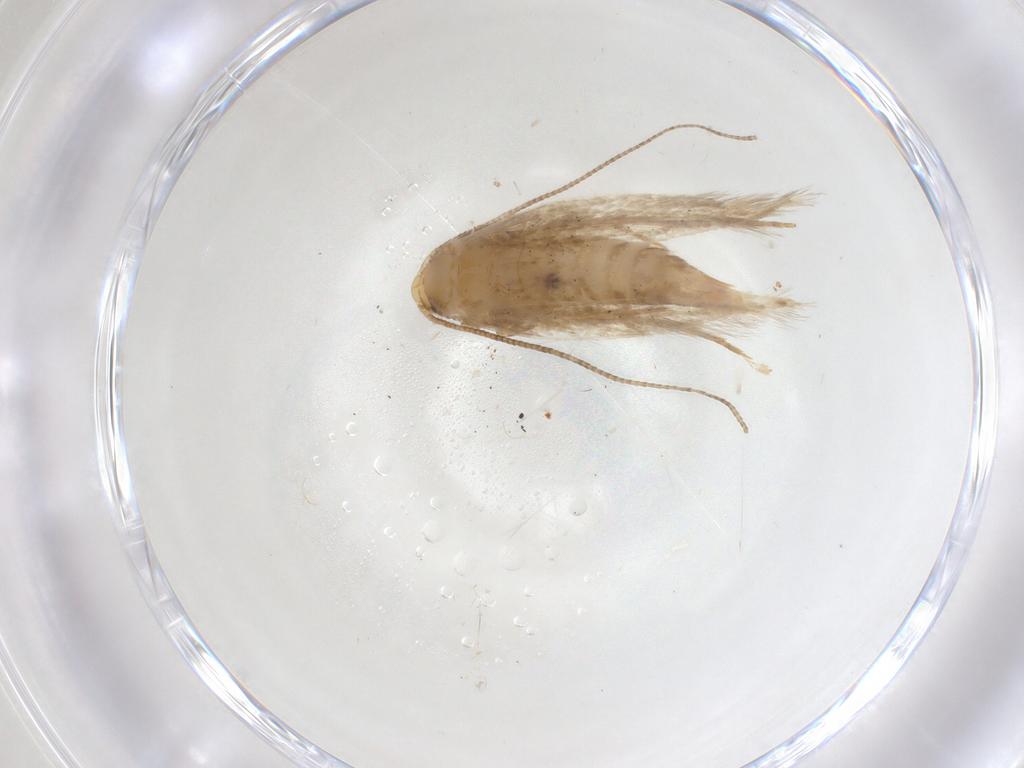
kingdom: Animalia
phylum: Arthropoda
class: Insecta
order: Lepidoptera
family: Tineidae
